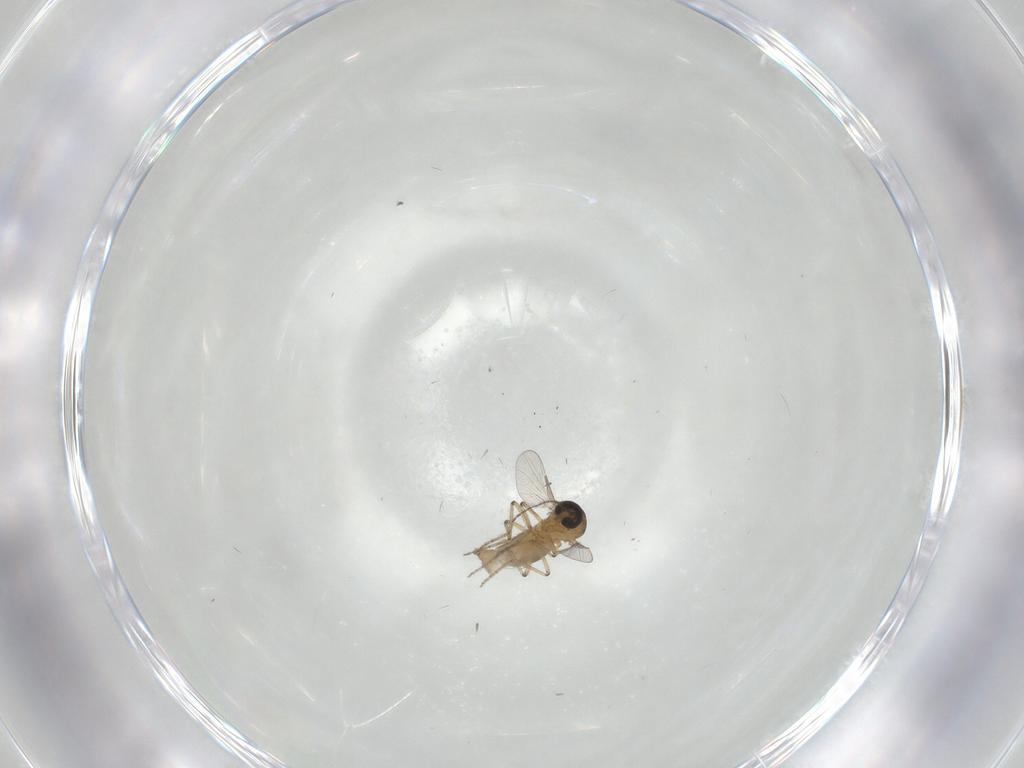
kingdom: Animalia
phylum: Arthropoda
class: Insecta
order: Diptera
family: Ceratopogonidae
